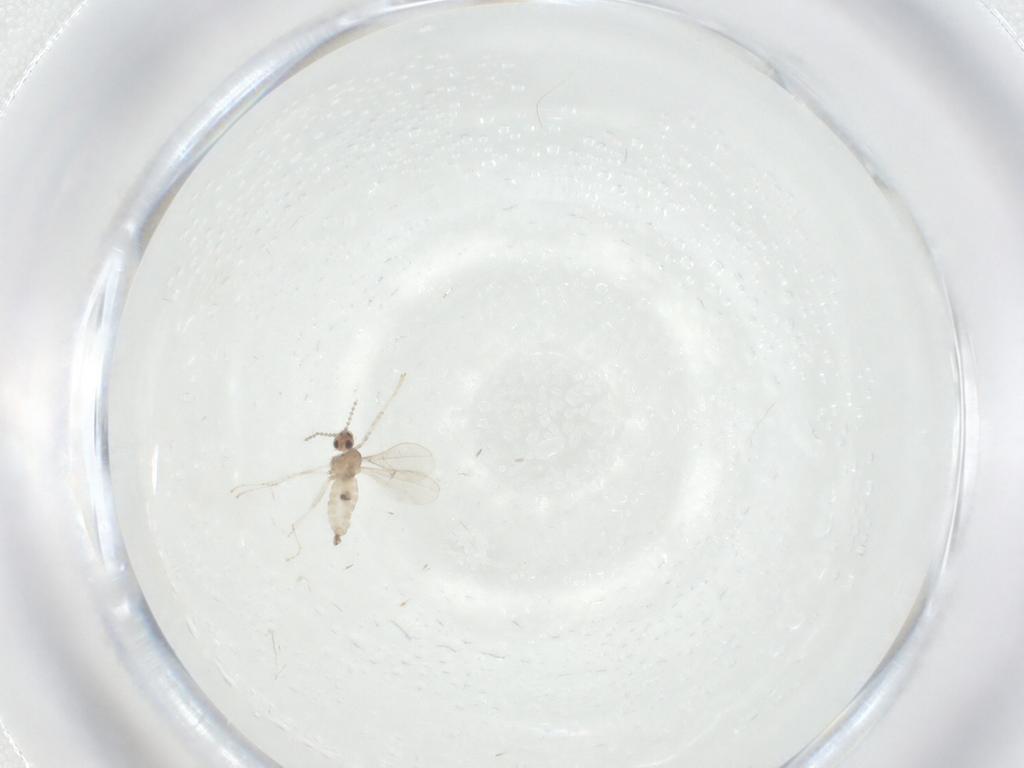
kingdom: Animalia
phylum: Arthropoda
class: Insecta
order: Diptera
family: Cecidomyiidae
